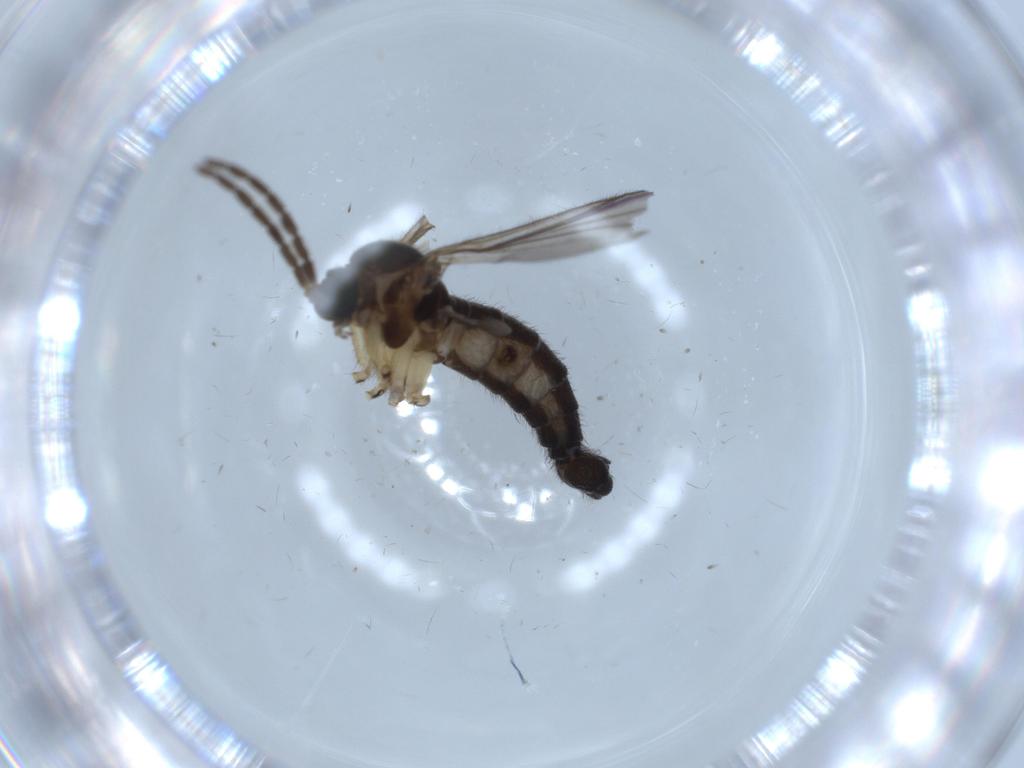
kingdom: Animalia
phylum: Arthropoda
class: Insecta
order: Diptera
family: Sciaridae
